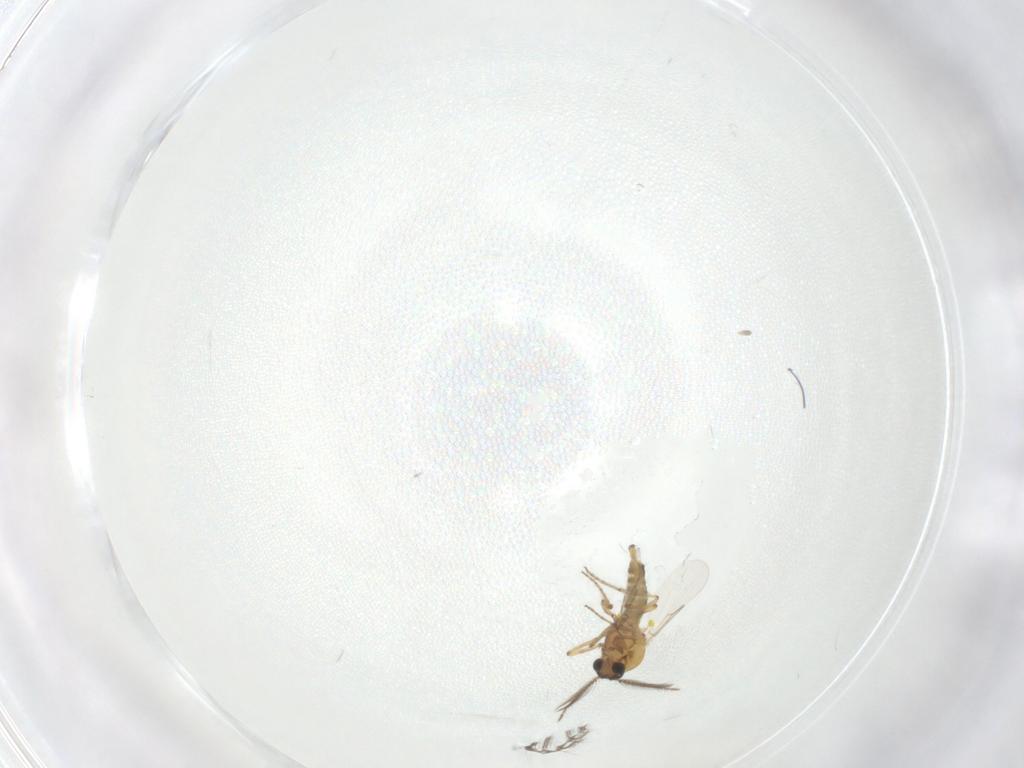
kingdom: Animalia
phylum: Arthropoda
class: Insecta
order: Diptera
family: Limoniidae
